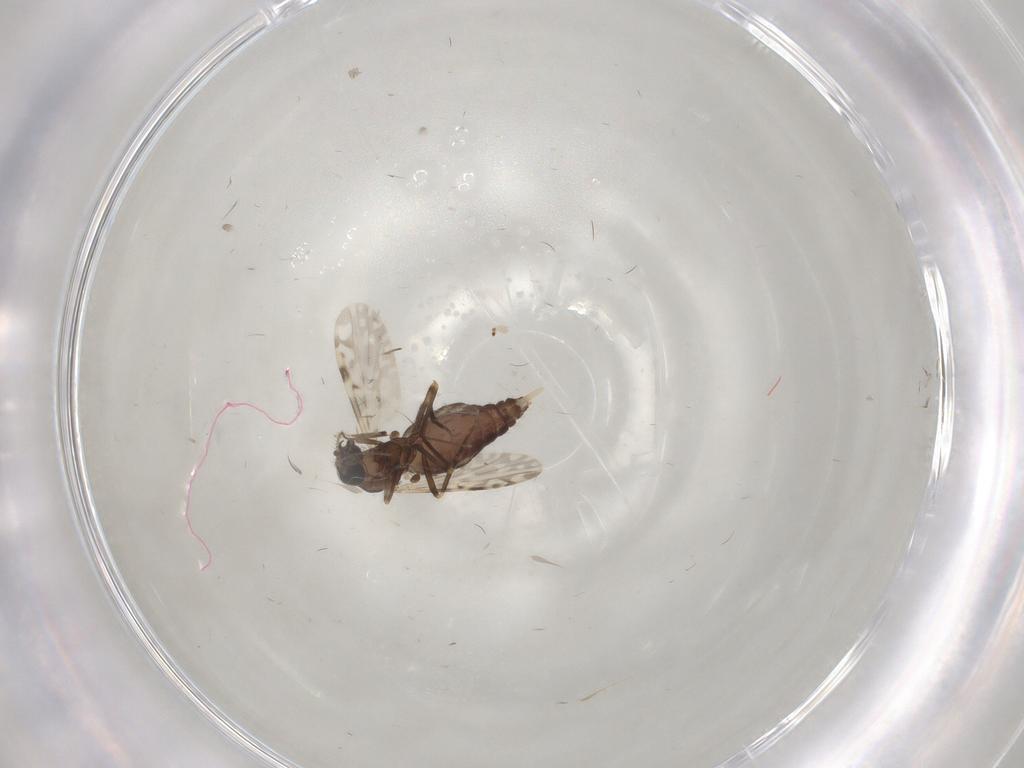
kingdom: Animalia
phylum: Arthropoda
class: Insecta
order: Diptera
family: Ceratopogonidae
